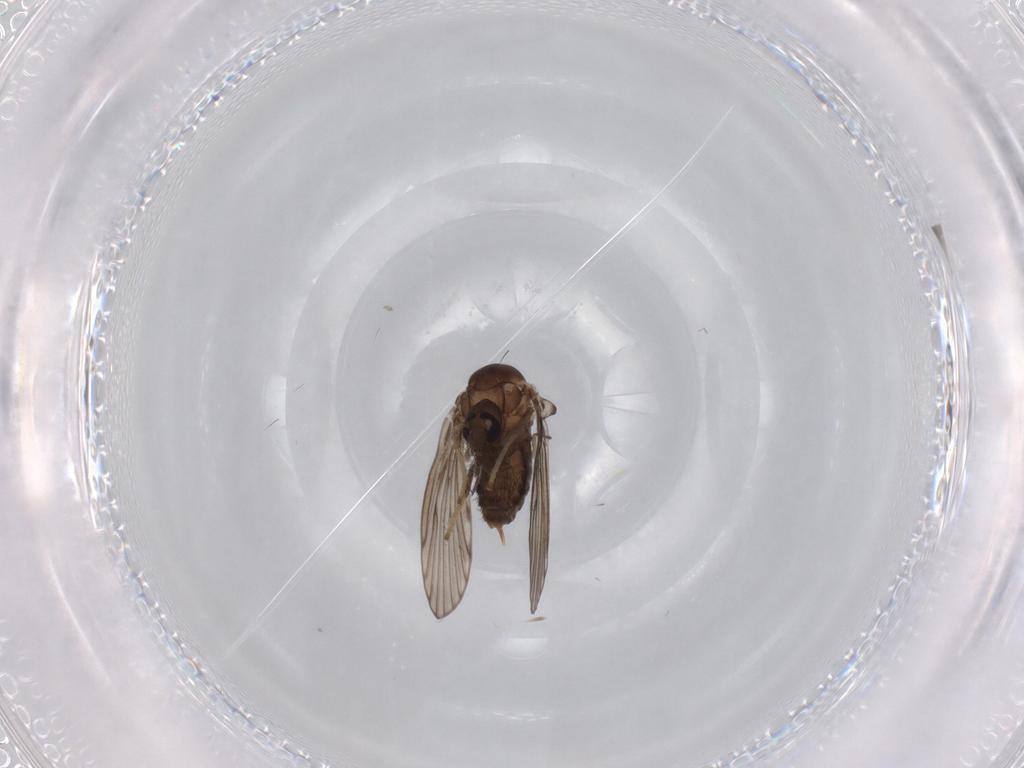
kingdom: Animalia
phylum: Arthropoda
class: Insecta
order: Diptera
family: Psychodidae
